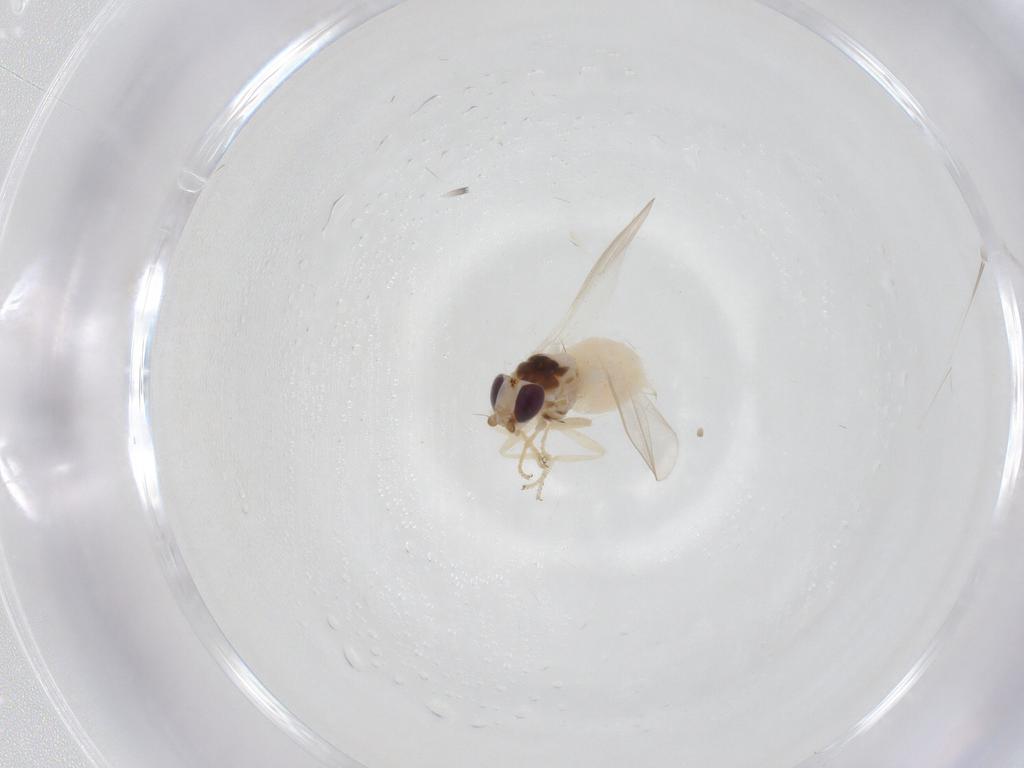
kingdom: Animalia
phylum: Arthropoda
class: Insecta
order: Diptera
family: Chloropidae
